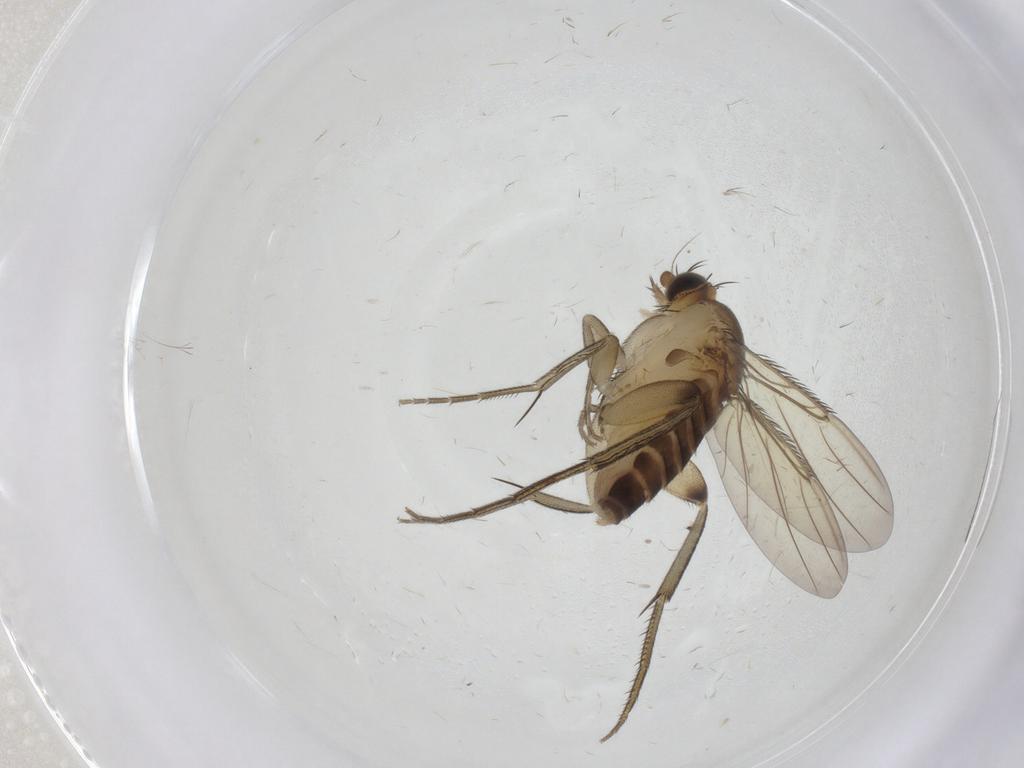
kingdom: Animalia
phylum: Arthropoda
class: Insecta
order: Diptera
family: Phoridae
